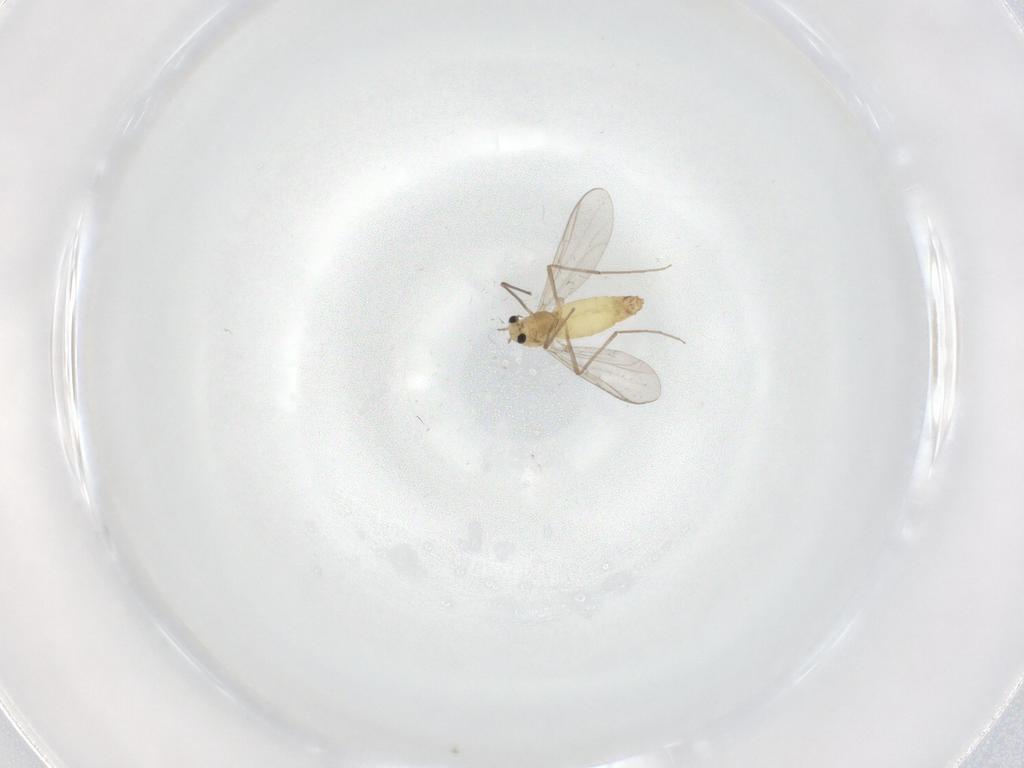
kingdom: Animalia
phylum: Arthropoda
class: Insecta
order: Diptera
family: Chironomidae
